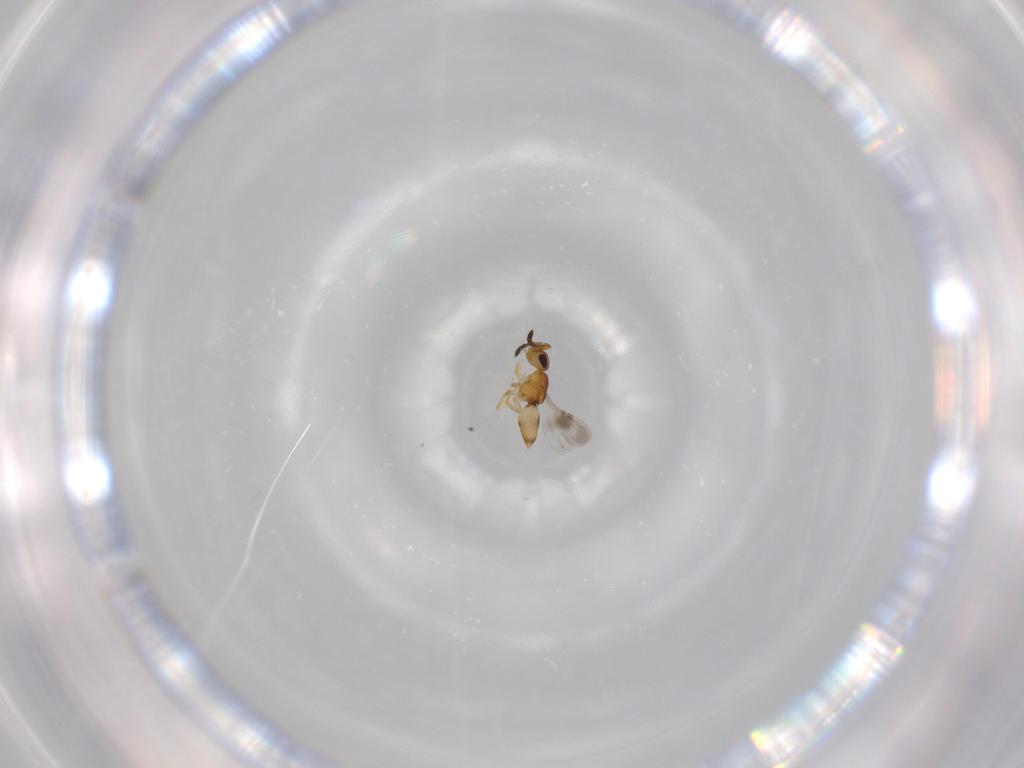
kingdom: Animalia
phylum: Arthropoda
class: Insecta
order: Hymenoptera
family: Ceraphronidae
